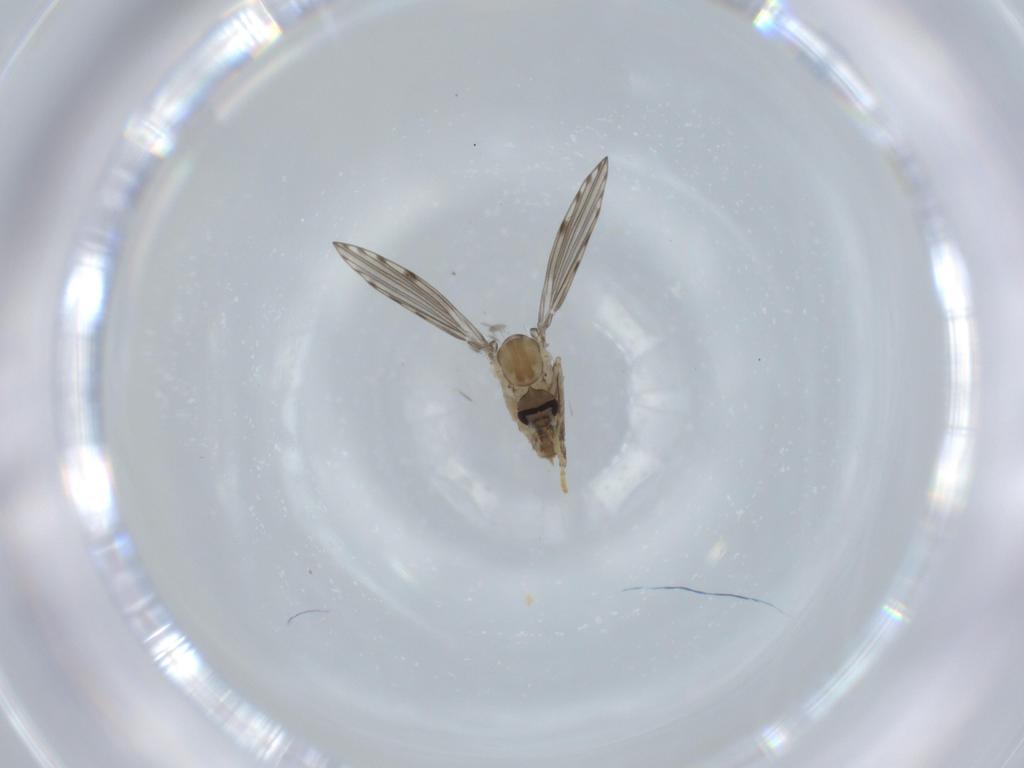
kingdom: Animalia
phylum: Arthropoda
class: Insecta
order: Diptera
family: Psychodidae
